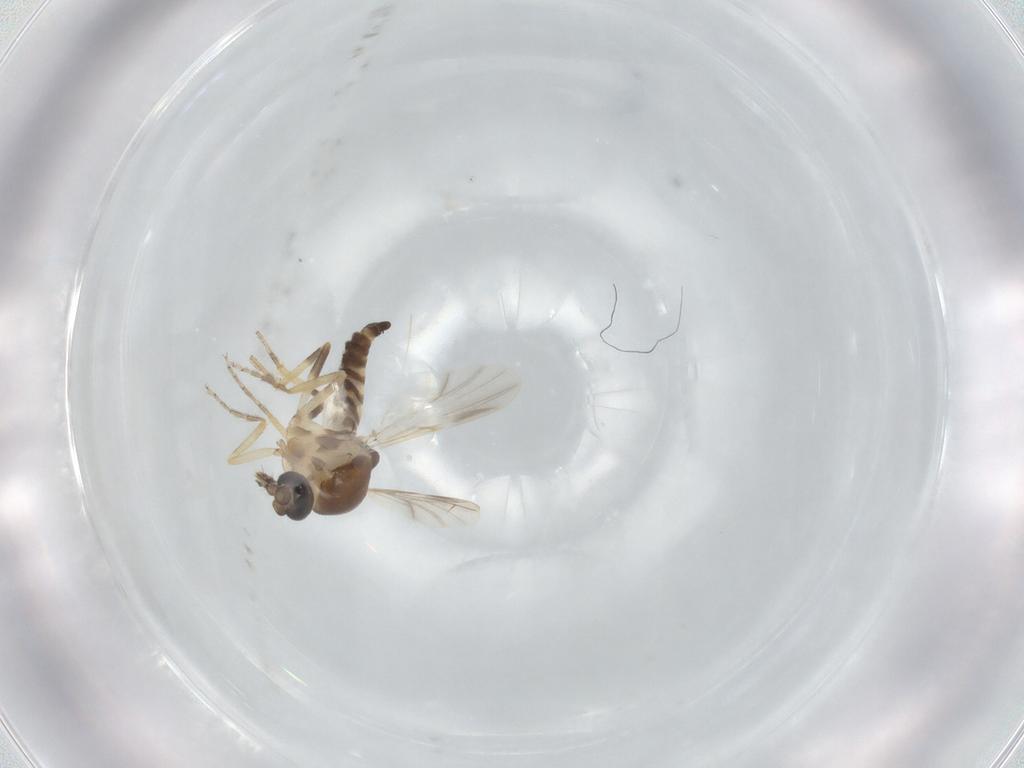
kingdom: Animalia
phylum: Arthropoda
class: Insecta
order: Diptera
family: Ceratopogonidae
